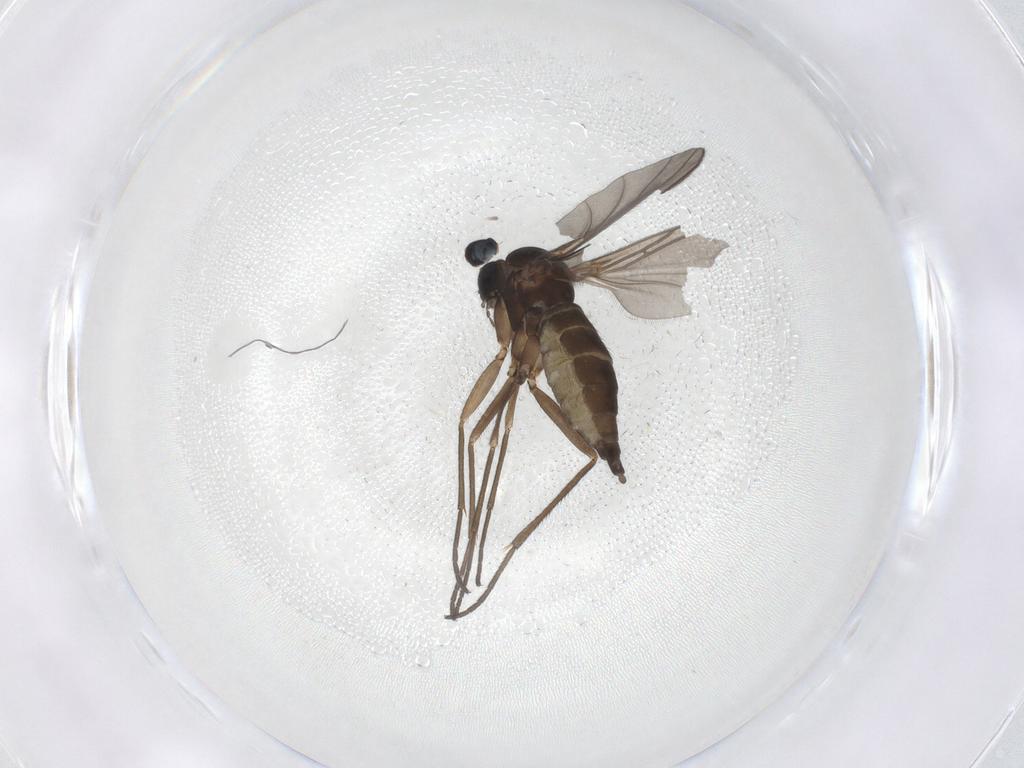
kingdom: Animalia
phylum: Arthropoda
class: Insecta
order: Diptera
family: Sciaridae
